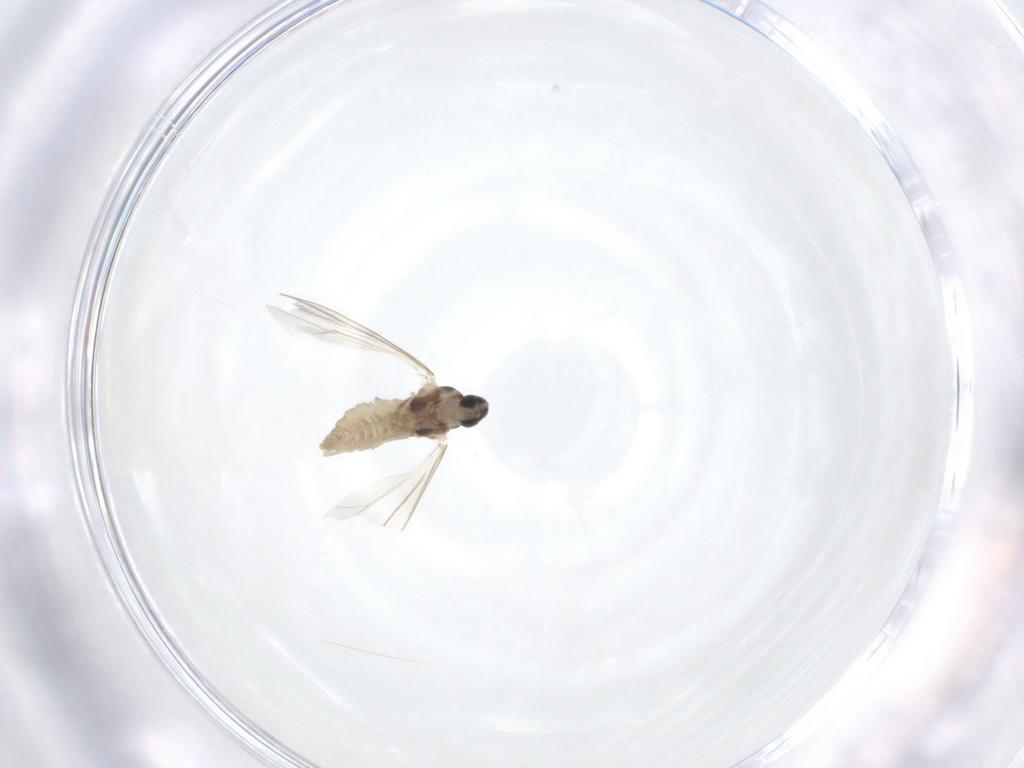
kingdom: Animalia
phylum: Arthropoda
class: Insecta
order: Diptera
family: Cecidomyiidae
